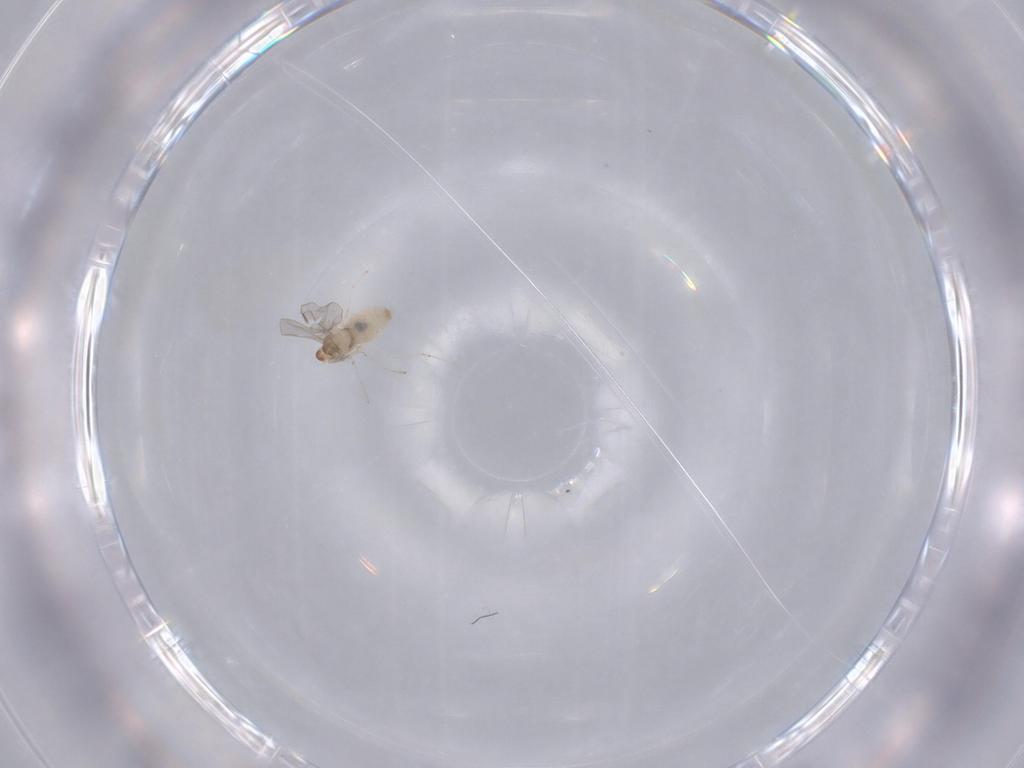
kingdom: Animalia
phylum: Arthropoda
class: Insecta
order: Diptera
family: Cecidomyiidae
